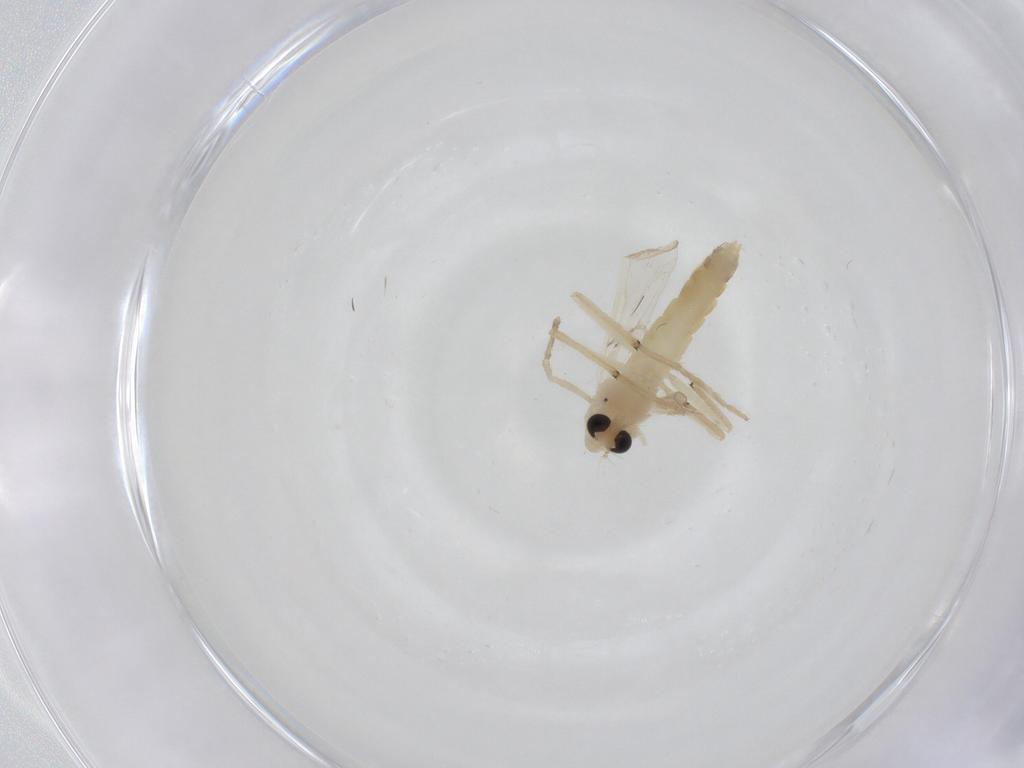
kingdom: Animalia
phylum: Arthropoda
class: Insecta
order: Diptera
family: Chironomidae
